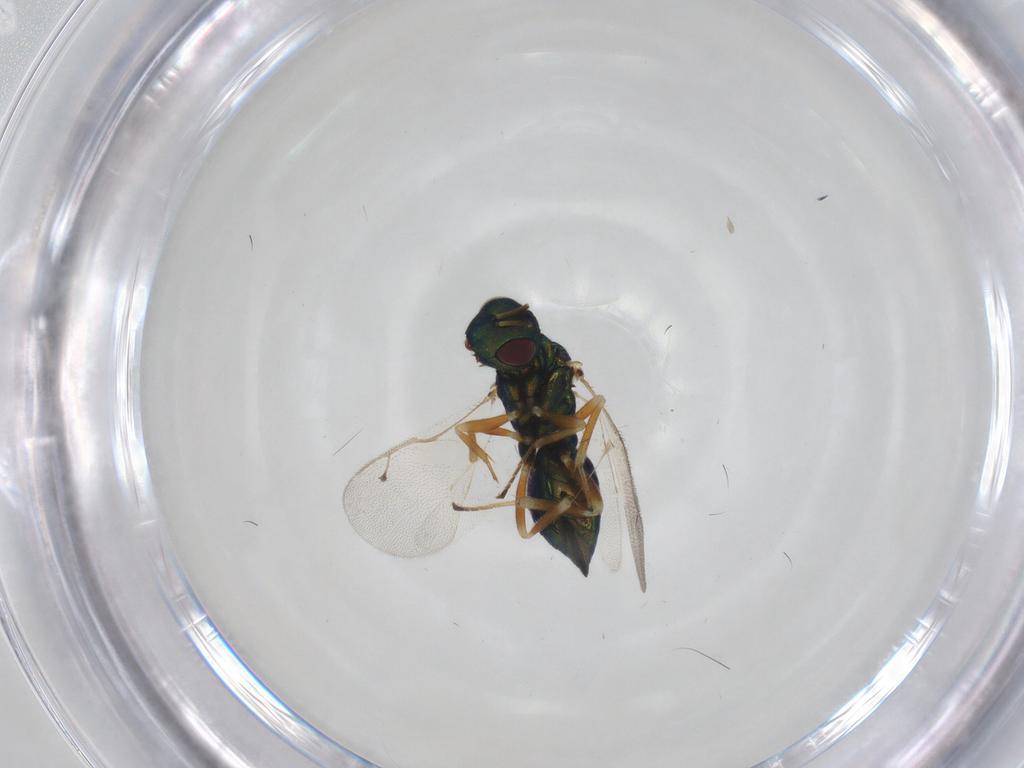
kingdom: Animalia
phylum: Arthropoda
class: Insecta
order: Hymenoptera
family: Pteromalidae
